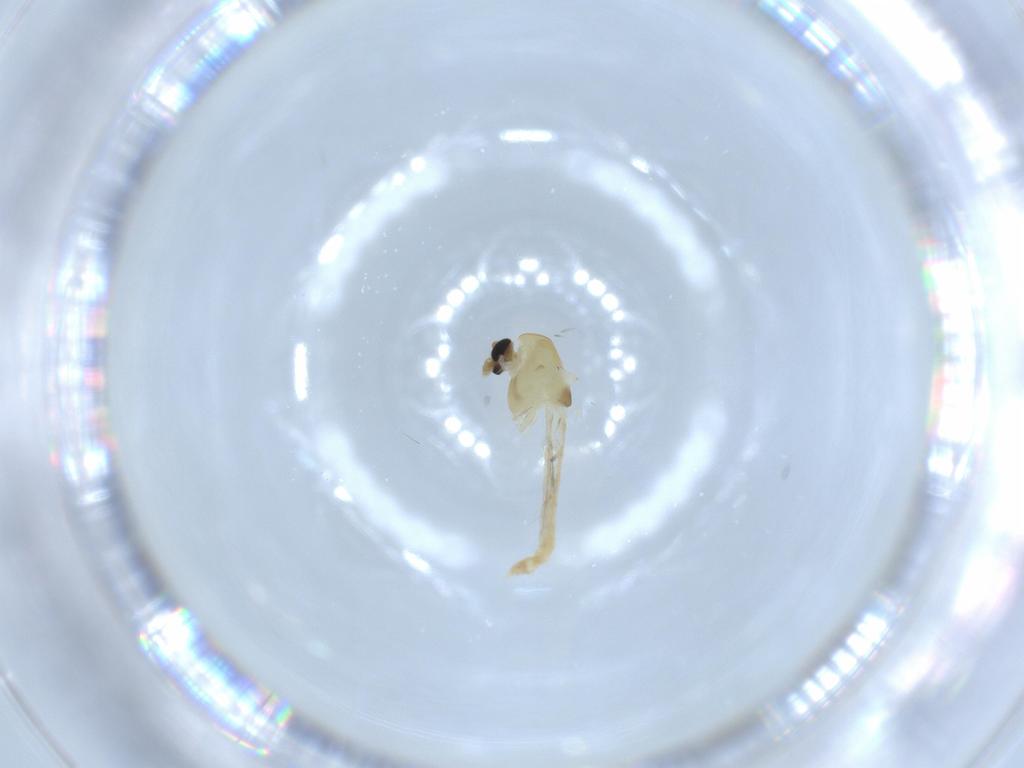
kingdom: Animalia
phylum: Arthropoda
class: Insecta
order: Diptera
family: Chironomidae
